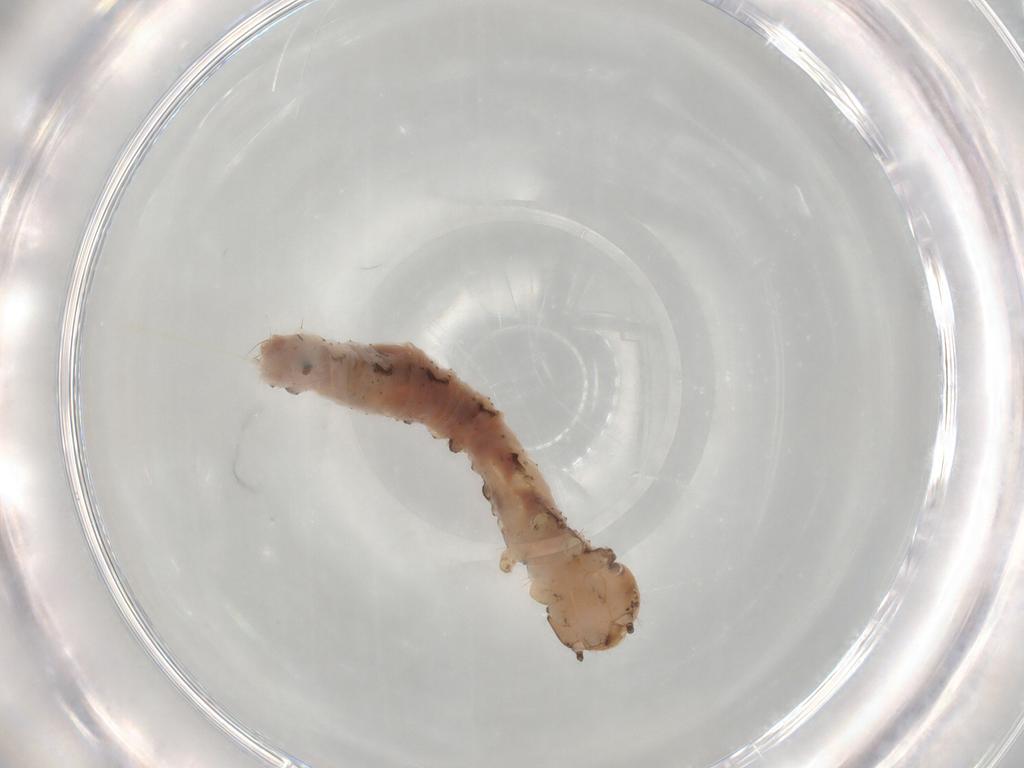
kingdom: Animalia
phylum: Arthropoda
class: Insecta
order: Lepidoptera
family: Geometridae
